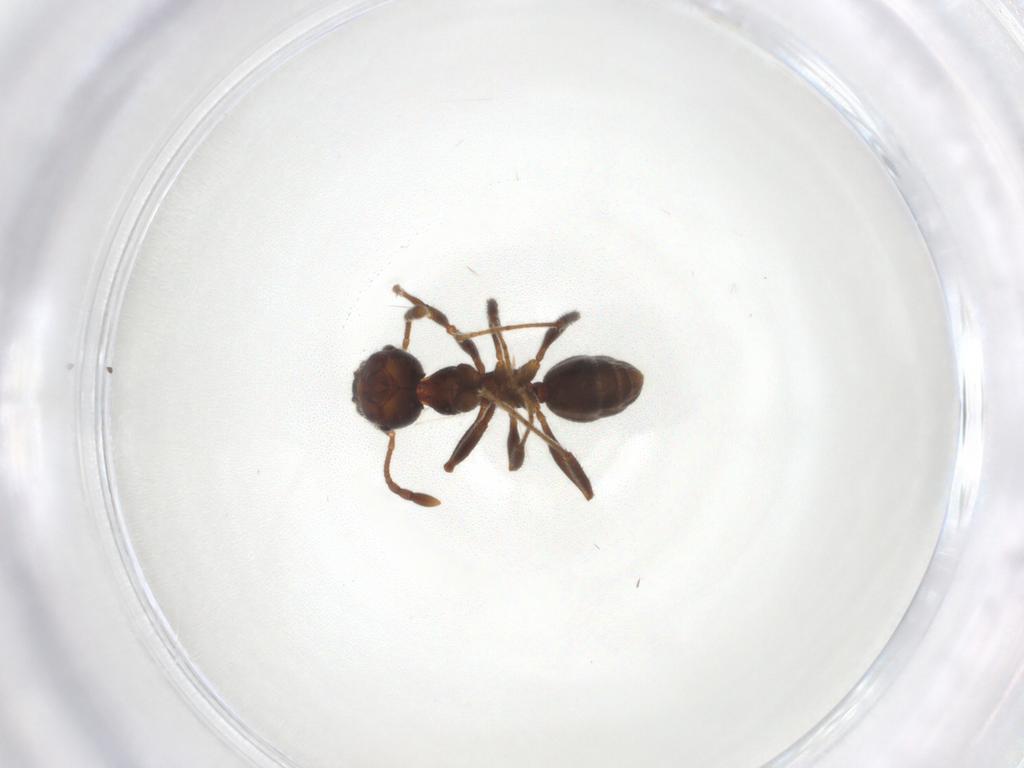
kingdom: Animalia
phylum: Arthropoda
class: Insecta
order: Hymenoptera
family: Formicidae
